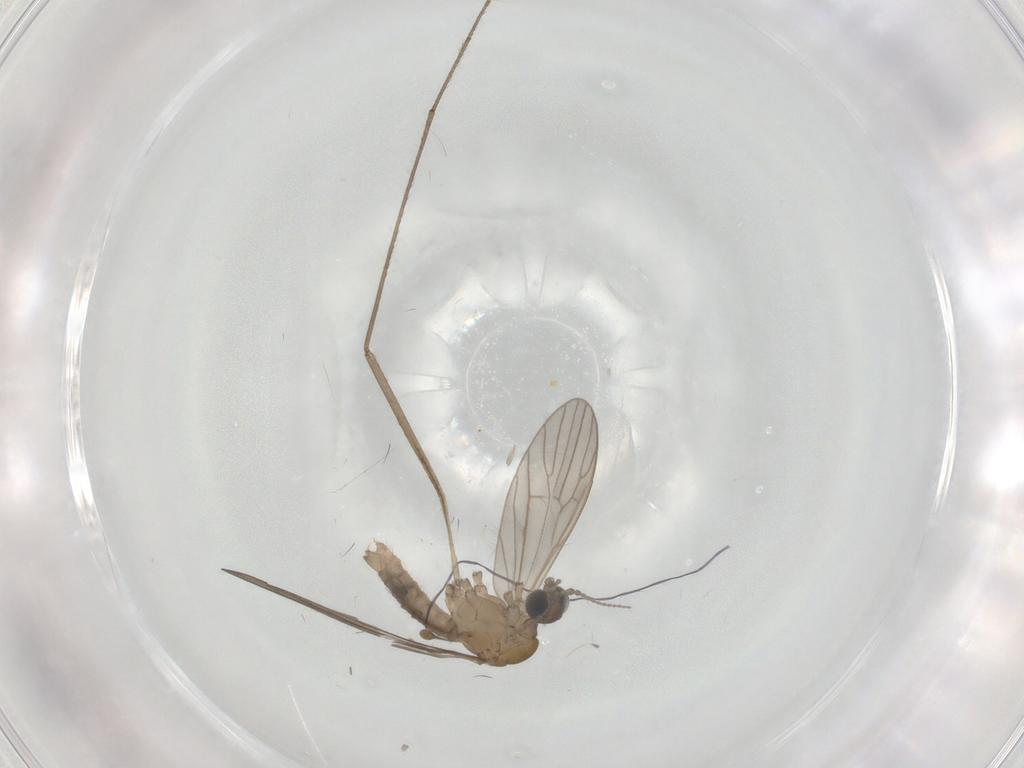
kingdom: Animalia
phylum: Arthropoda
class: Insecta
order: Diptera
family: Limoniidae
